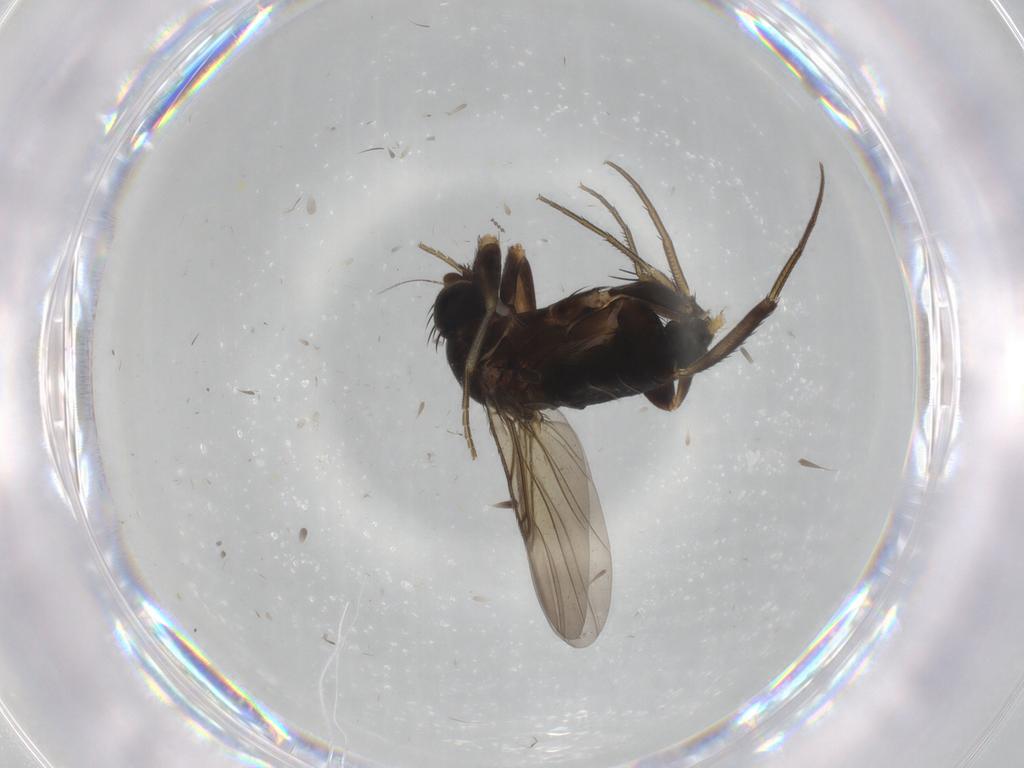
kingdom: Animalia
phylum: Arthropoda
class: Insecta
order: Diptera
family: Phoridae
